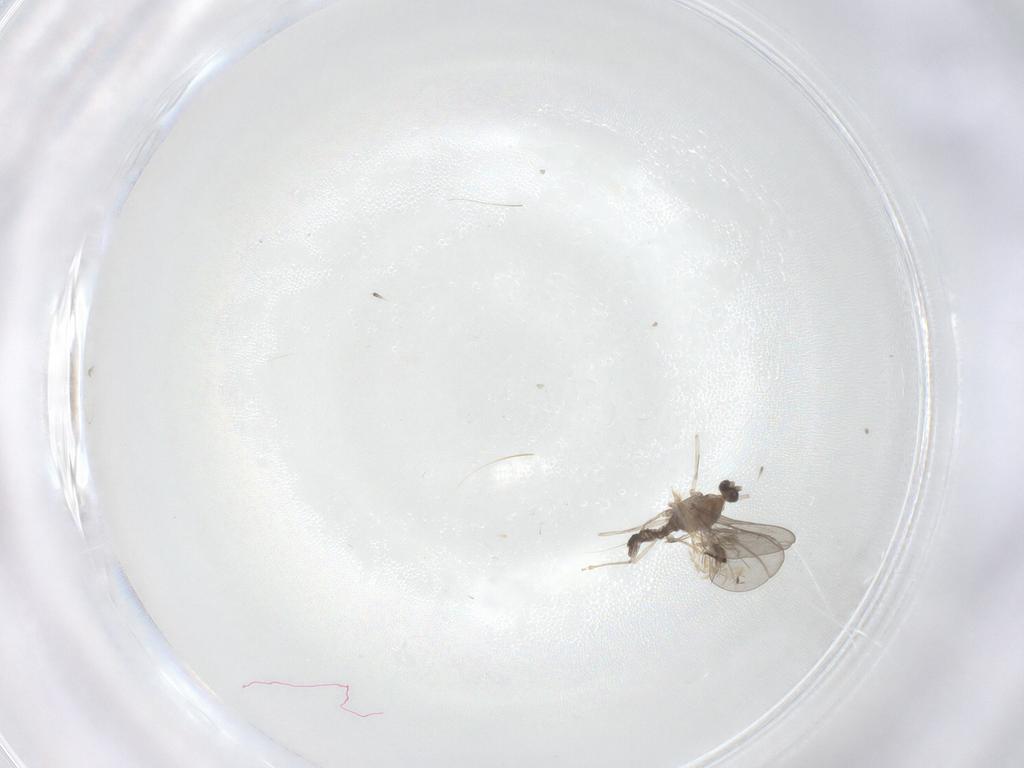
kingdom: Animalia
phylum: Arthropoda
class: Insecta
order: Diptera
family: Cecidomyiidae
